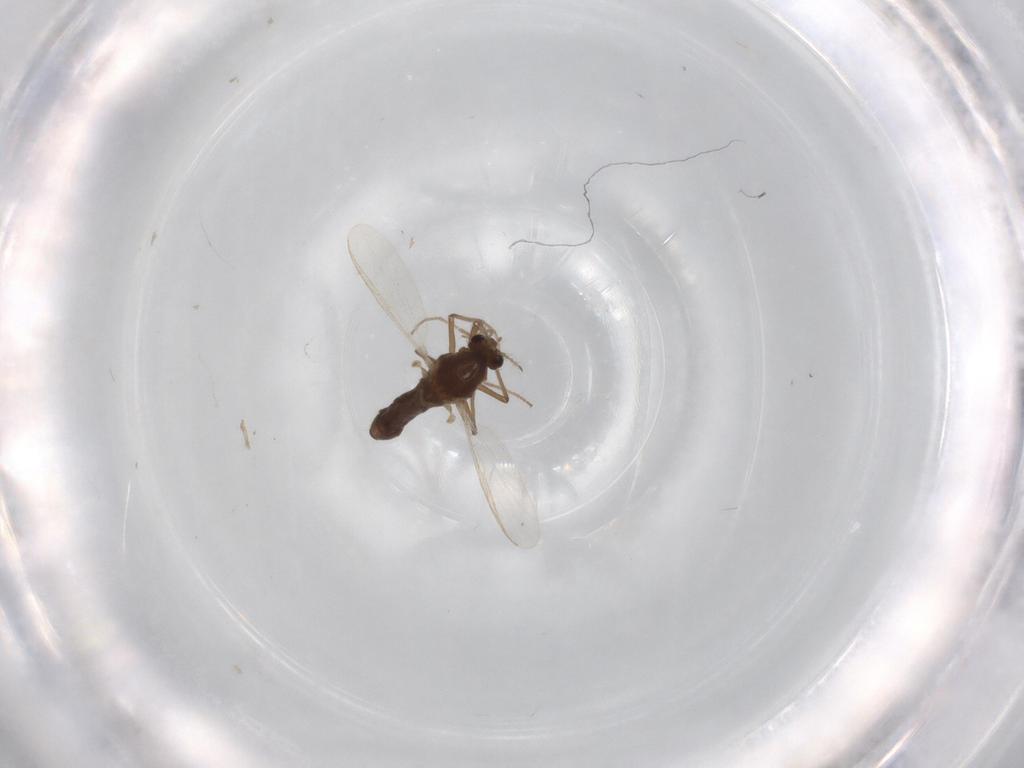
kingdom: Animalia
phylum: Arthropoda
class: Insecta
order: Diptera
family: Chironomidae
